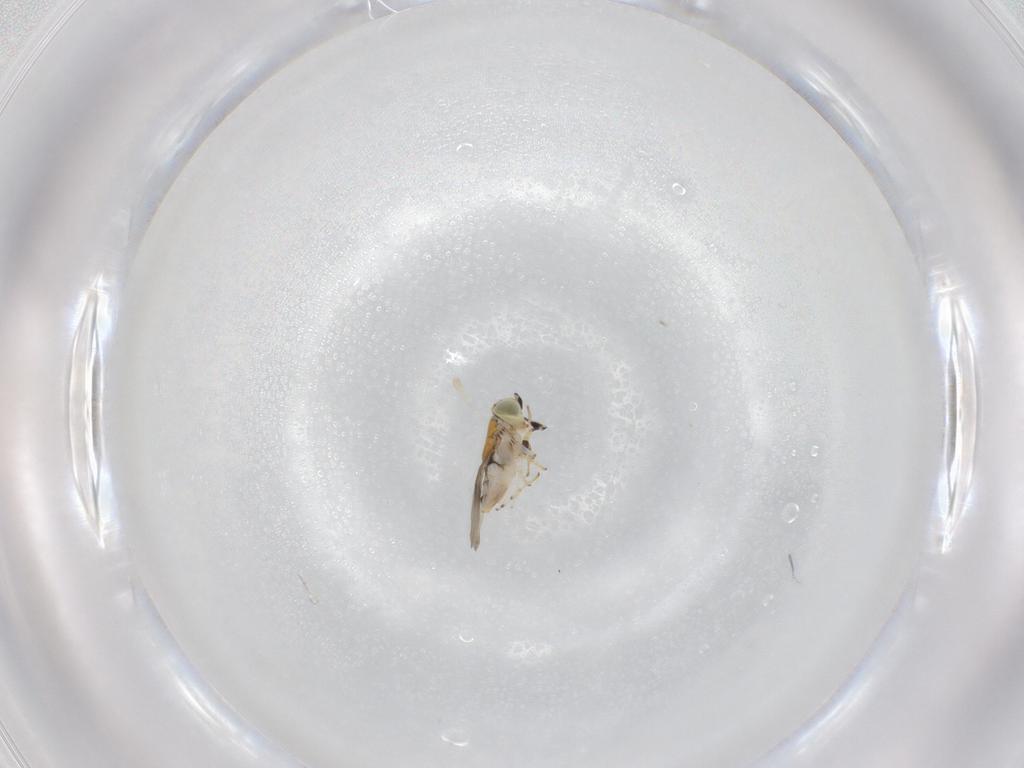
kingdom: Animalia
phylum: Arthropoda
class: Insecta
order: Hymenoptera
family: Encyrtidae
